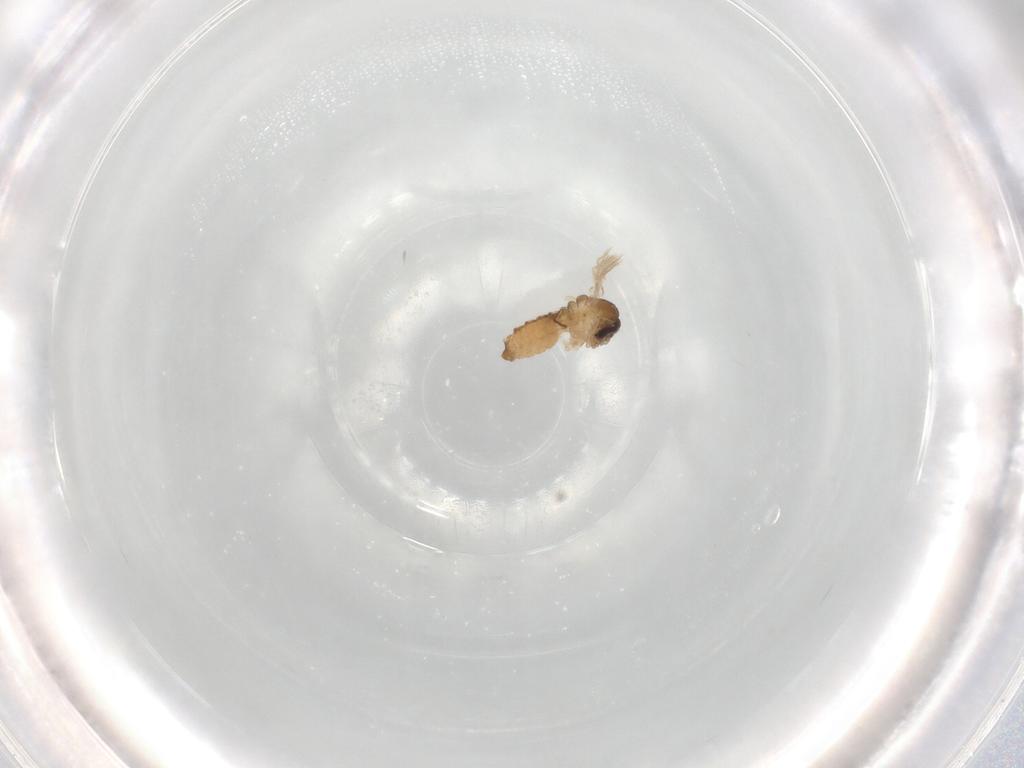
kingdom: Animalia
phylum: Arthropoda
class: Insecta
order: Diptera
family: Psychodidae
